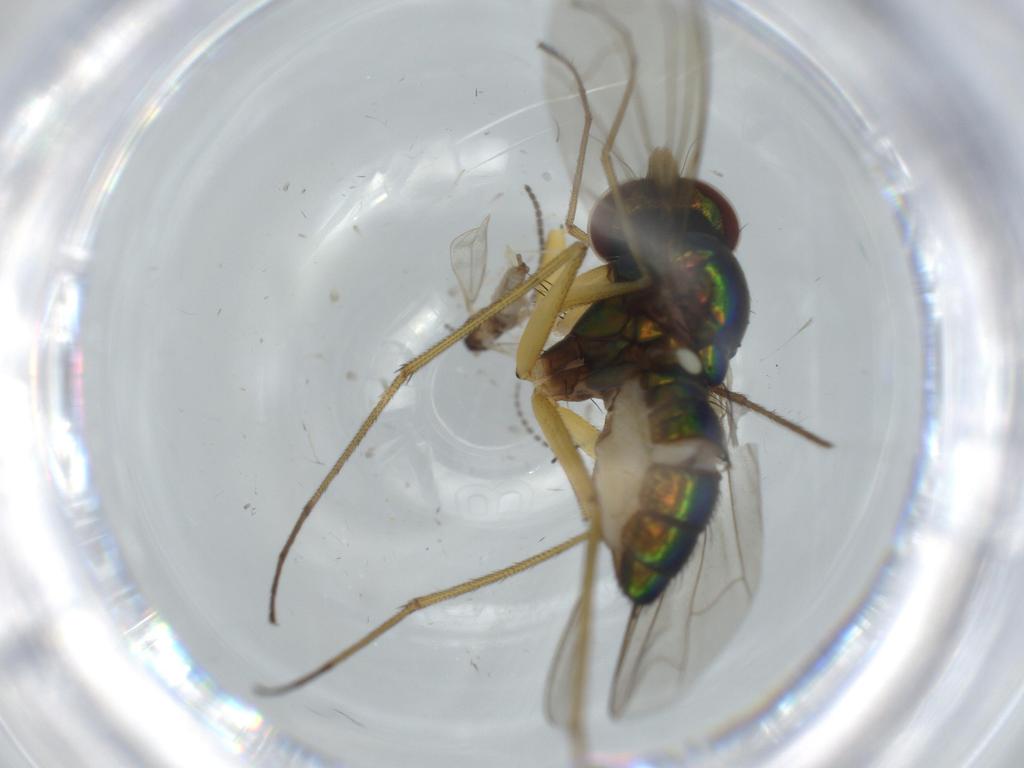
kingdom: Animalia
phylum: Arthropoda
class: Insecta
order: Diptera
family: Dolichopodidae
